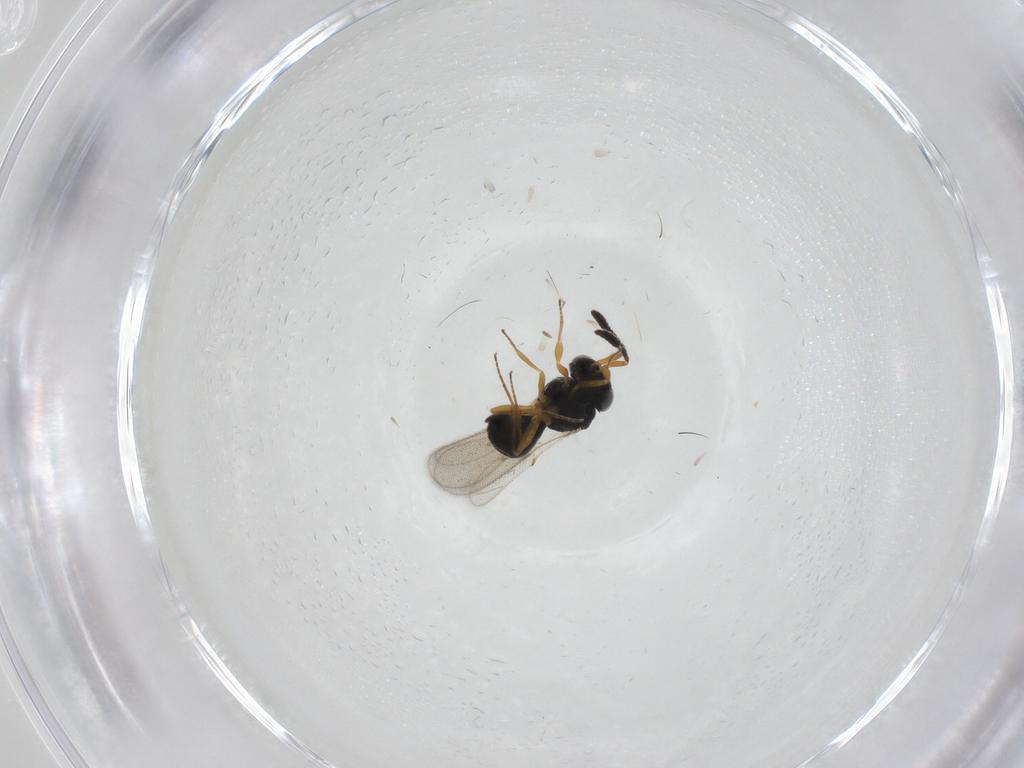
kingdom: Animalia
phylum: Arthropoda
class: Insecta
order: Hymenoptera
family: Scelionidae
